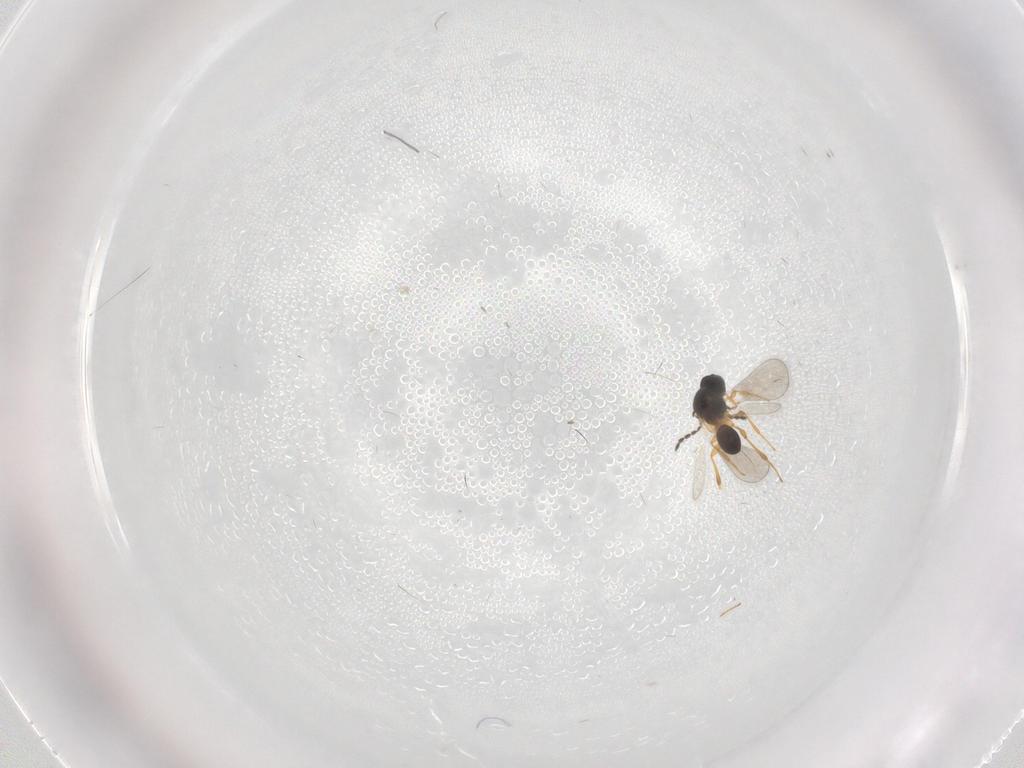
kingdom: Animalia
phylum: Arthropoda
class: Insecta
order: Hymenoptera
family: Platygastridae
